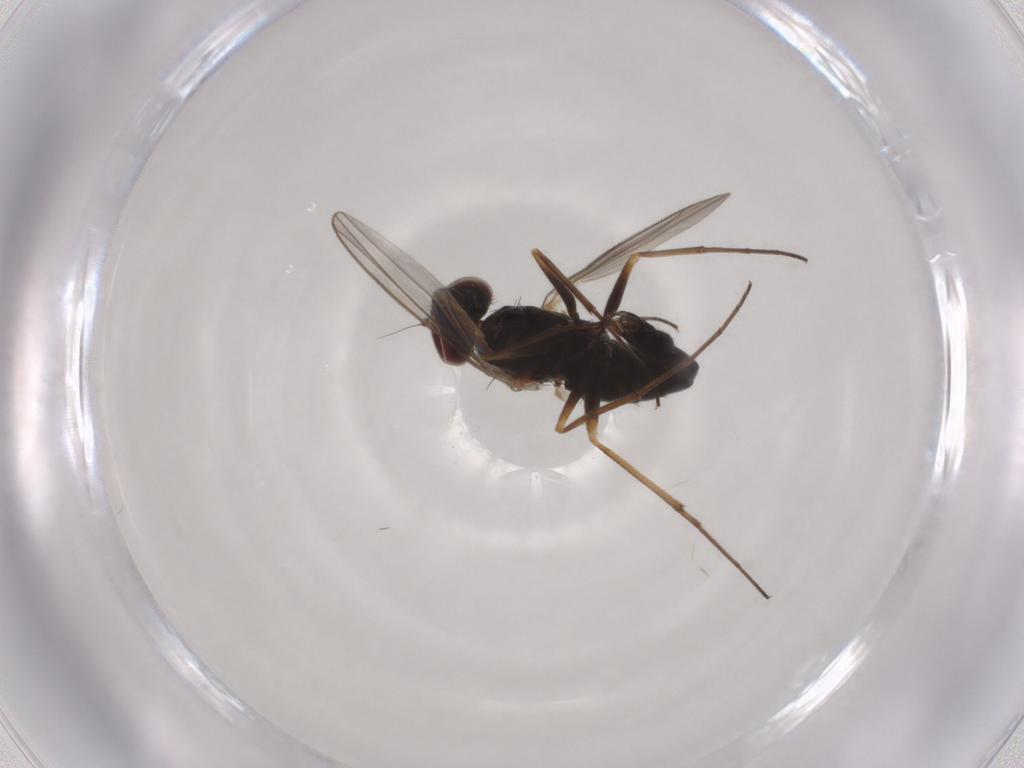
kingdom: Animalia
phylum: Arthropoda
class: Insecta
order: Diptera
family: Dolichopodidae
